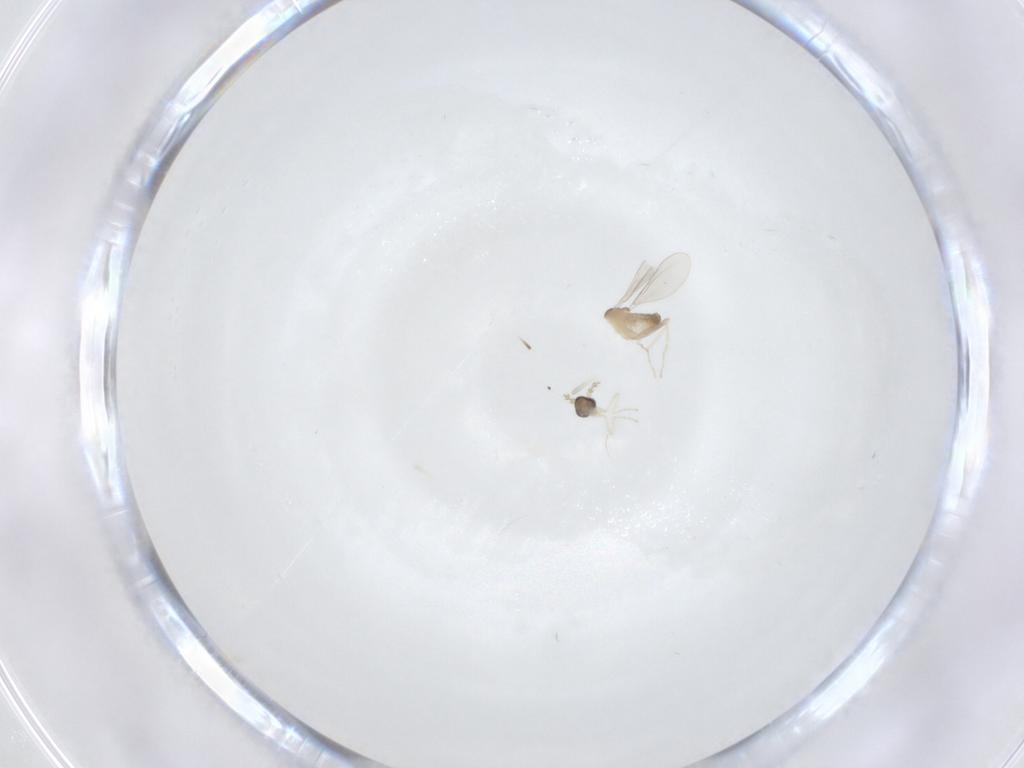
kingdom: Animalia
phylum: Arthropoda
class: Insecta
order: Diptera
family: Cecidomyiidae
